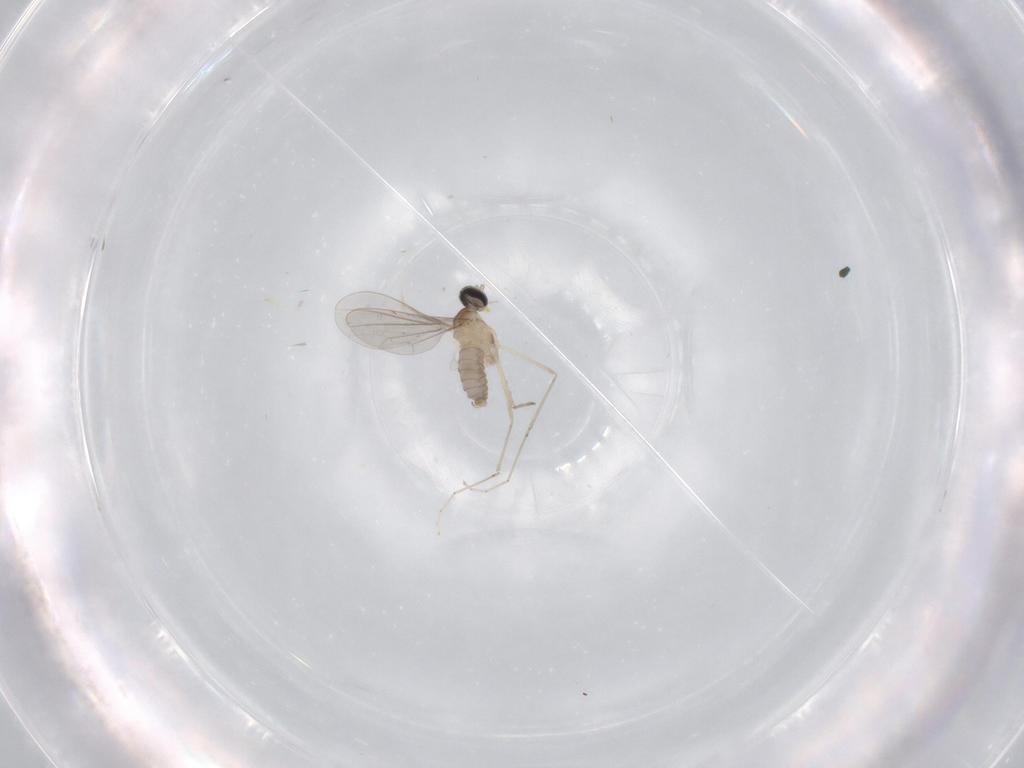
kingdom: Animalia
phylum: Arthropoda
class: Insecta
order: Diptera
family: Cecidomyiidae
